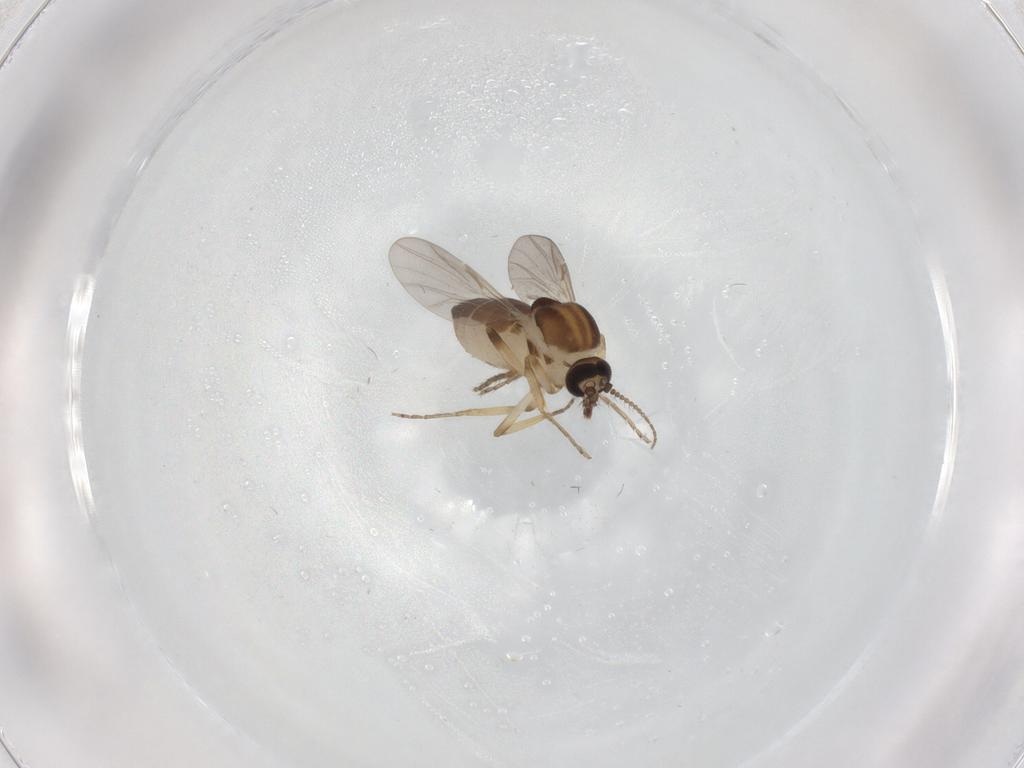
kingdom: Animalia
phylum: Arthropoda
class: Insecta
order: Diptera
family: Ceratopogonidae
